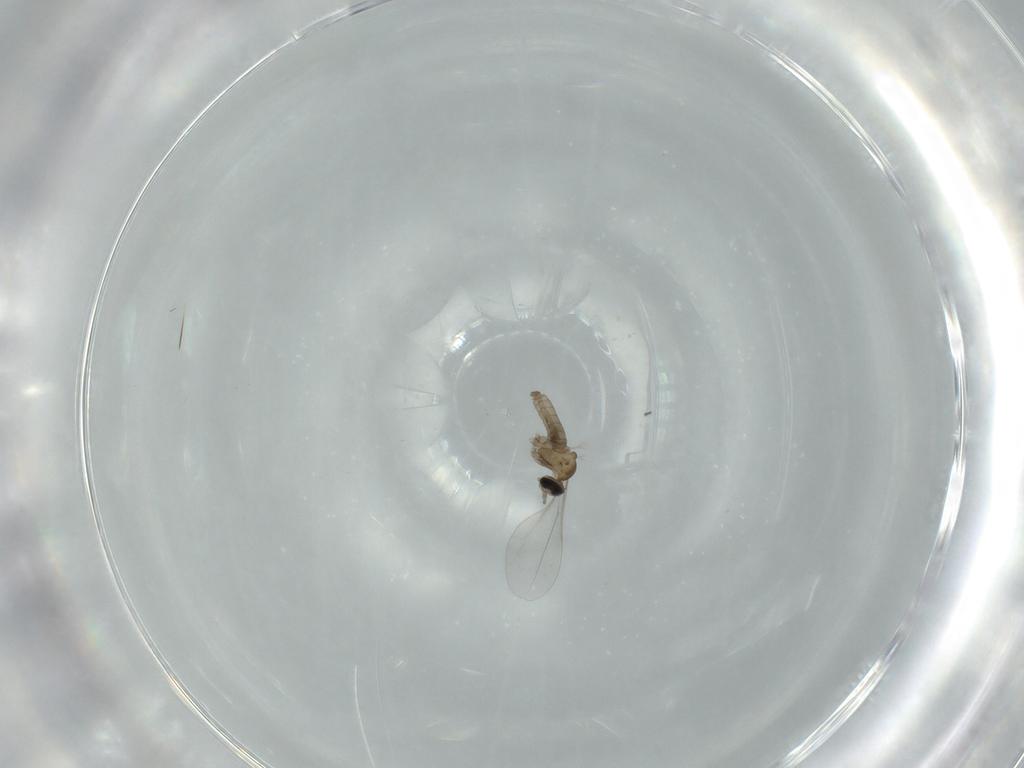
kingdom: Animalia
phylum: Arthropoda
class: Insecta
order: Diptera
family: Cecidomyiidae
